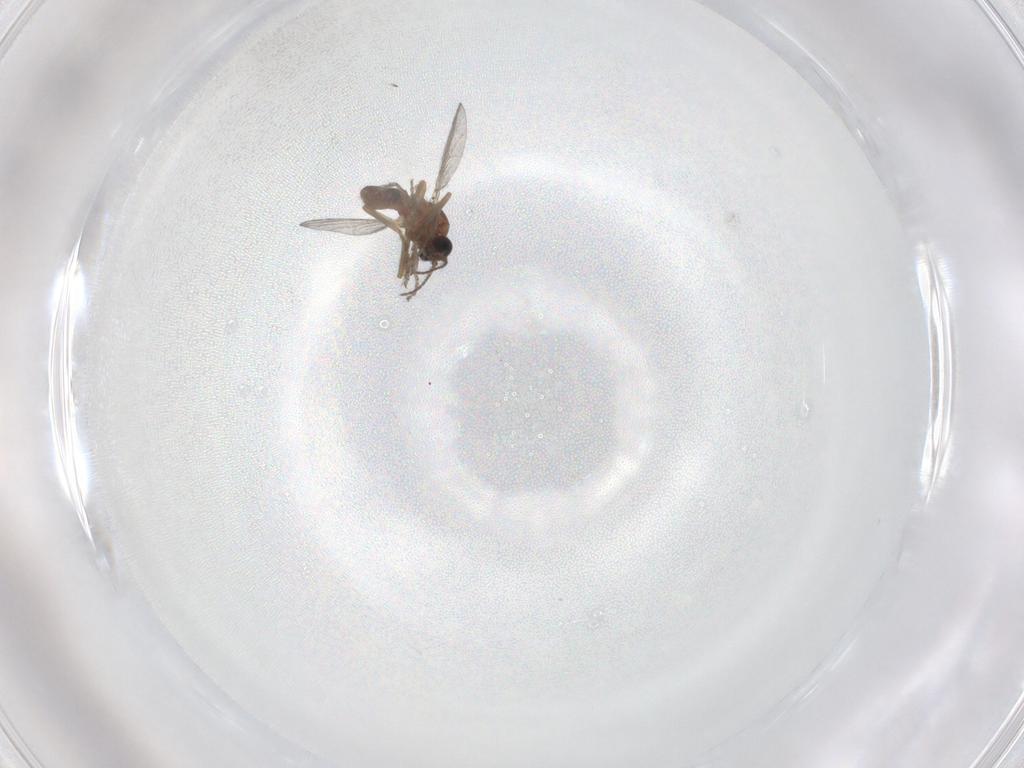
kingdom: Animalia
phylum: Arthropoda
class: Insecta
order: Diptera
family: Ceratopogonidae
